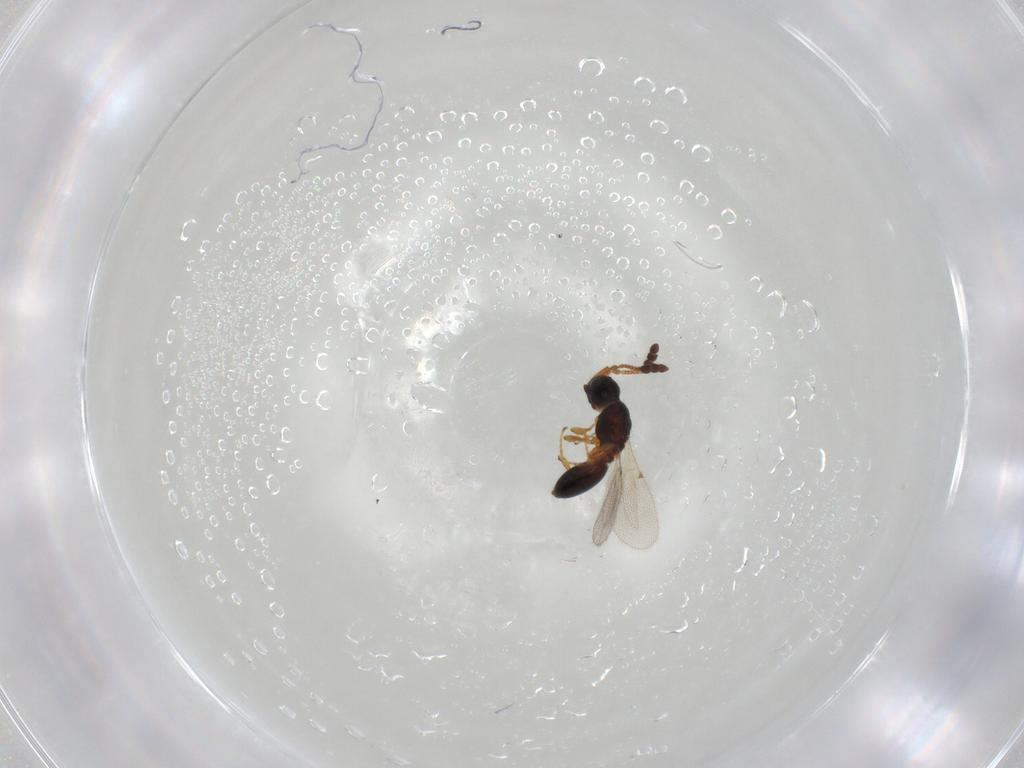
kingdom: Animalia
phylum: Arthropoda
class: Insecta
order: Hymenoptera
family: Diapriidae
